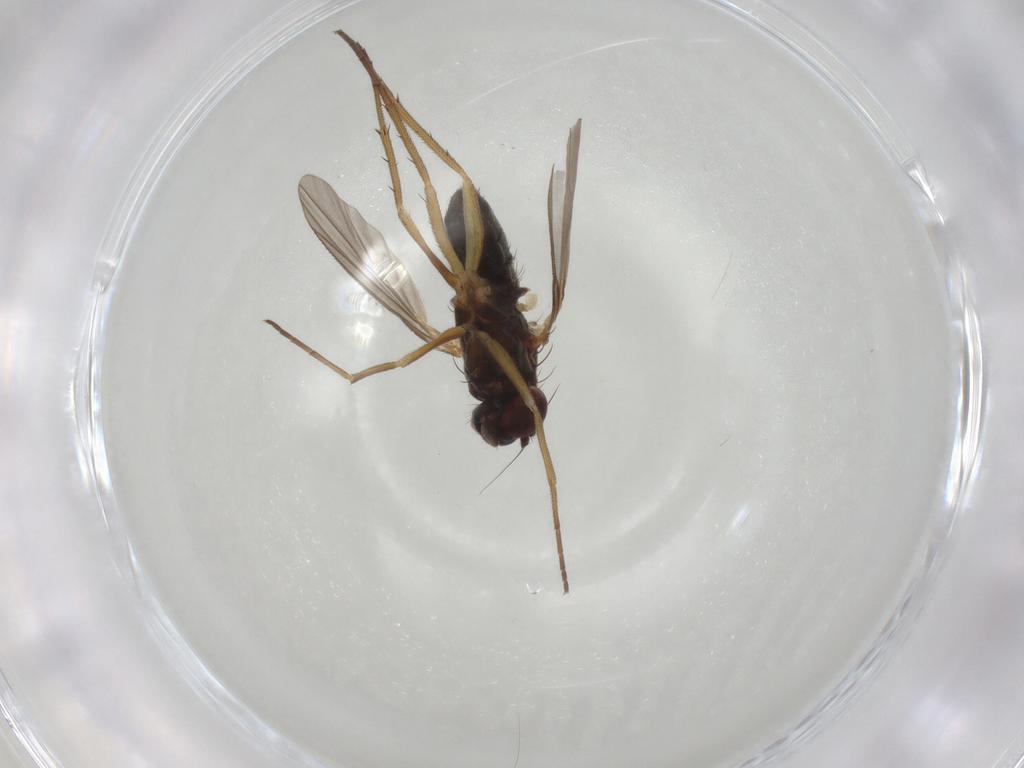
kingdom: Animalia
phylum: Arthropoda
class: Insecta
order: Diptera
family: Dolichopodidae
